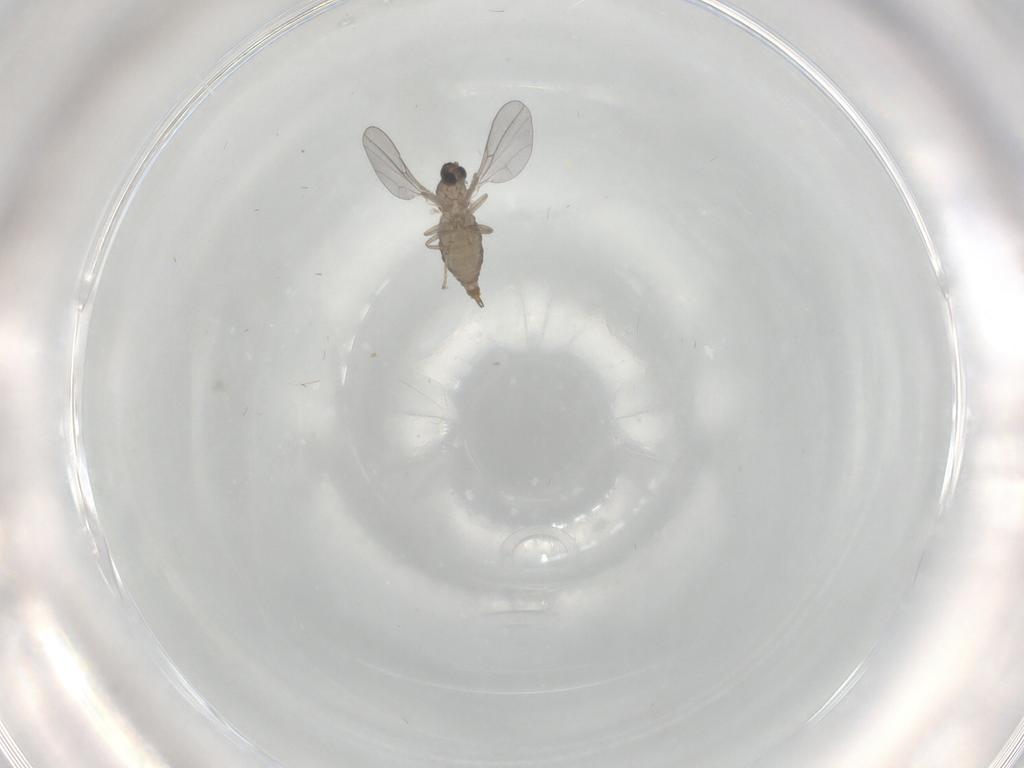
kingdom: Animalia
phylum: Arthropoda
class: Insecta
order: Diptera
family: Cecidomyiidae
